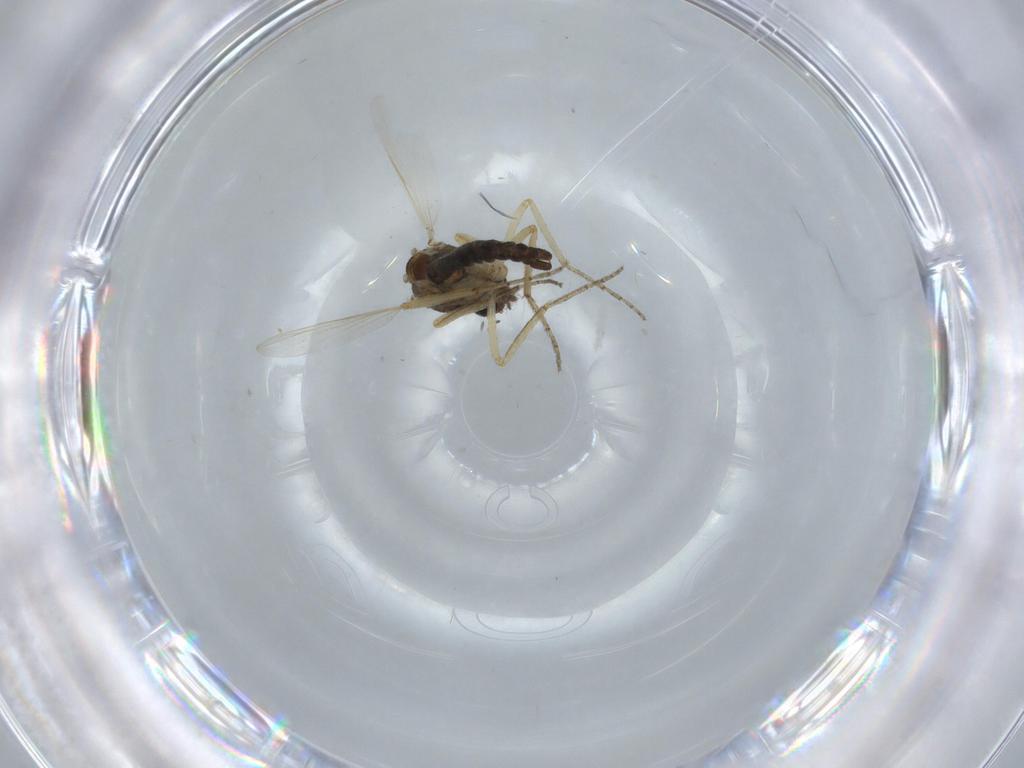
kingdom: Animalia
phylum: Arthropoda
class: Insecta
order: Diptera
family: Ceratopogonidae
